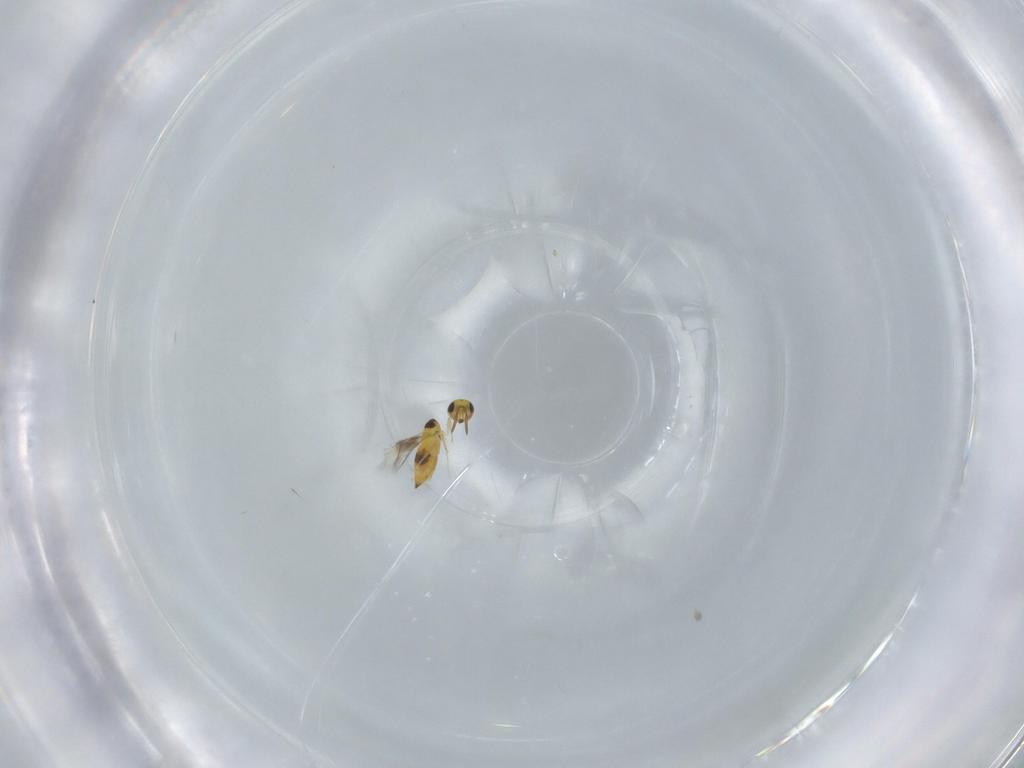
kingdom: Animalia
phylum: Arthropoda
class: Insecta
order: Hymenoptera
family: Signiphoridae
